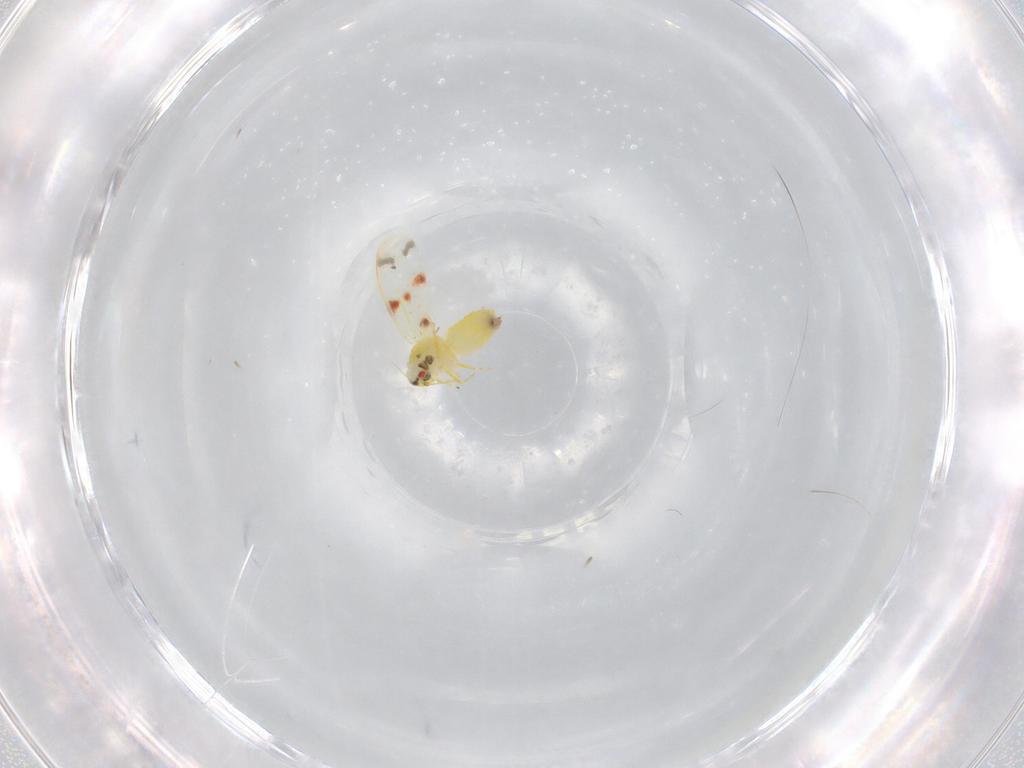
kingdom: Animalia
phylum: Arthropoda
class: Insecta
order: Hemiptera
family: Aleyrodidae
